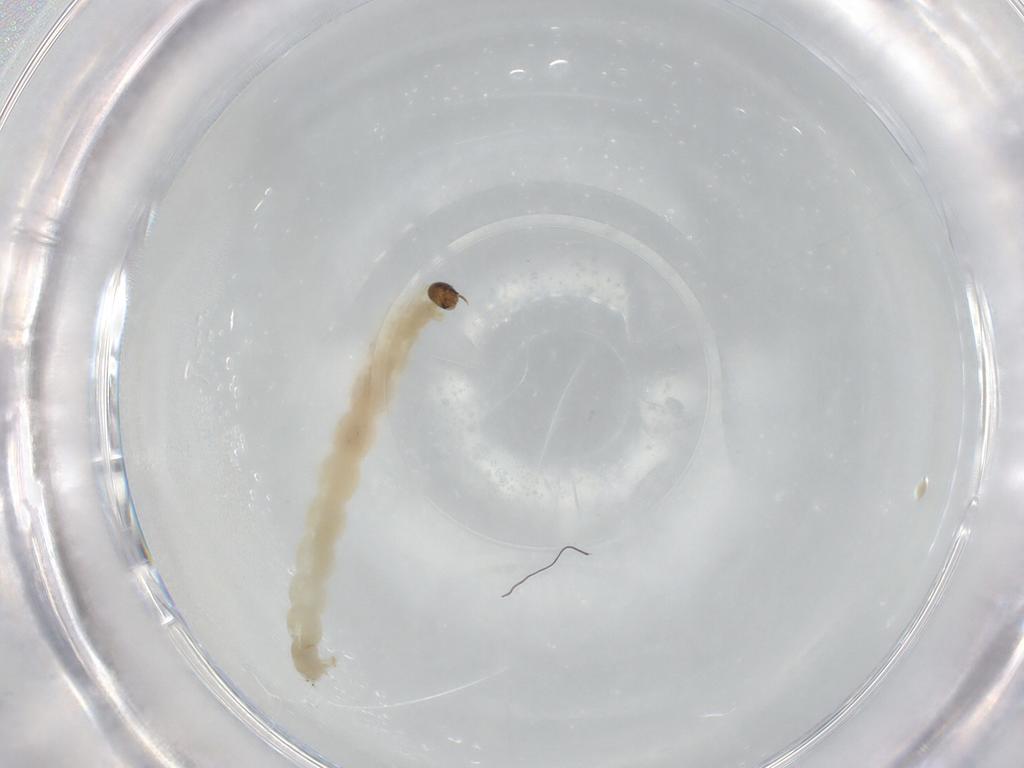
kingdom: Animalia
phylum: Arthropoda
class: Insecta
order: Diptera
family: Chironomidae
